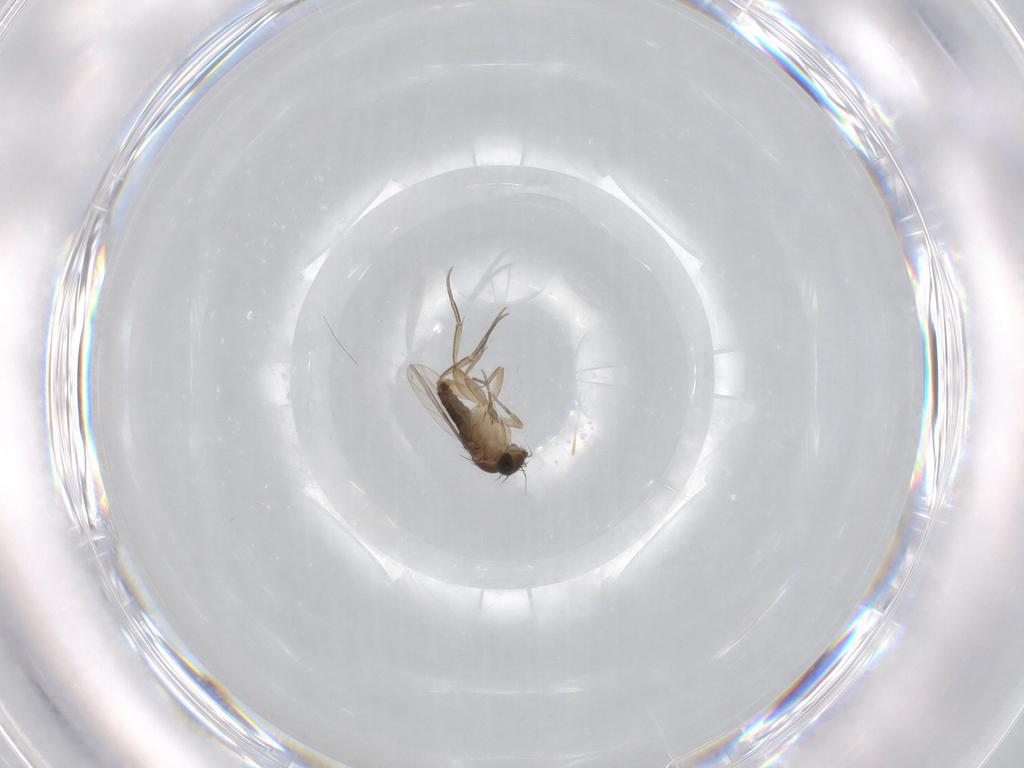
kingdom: Animalia
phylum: Arthropoda
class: Insecta
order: Diptera
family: Phoridae
